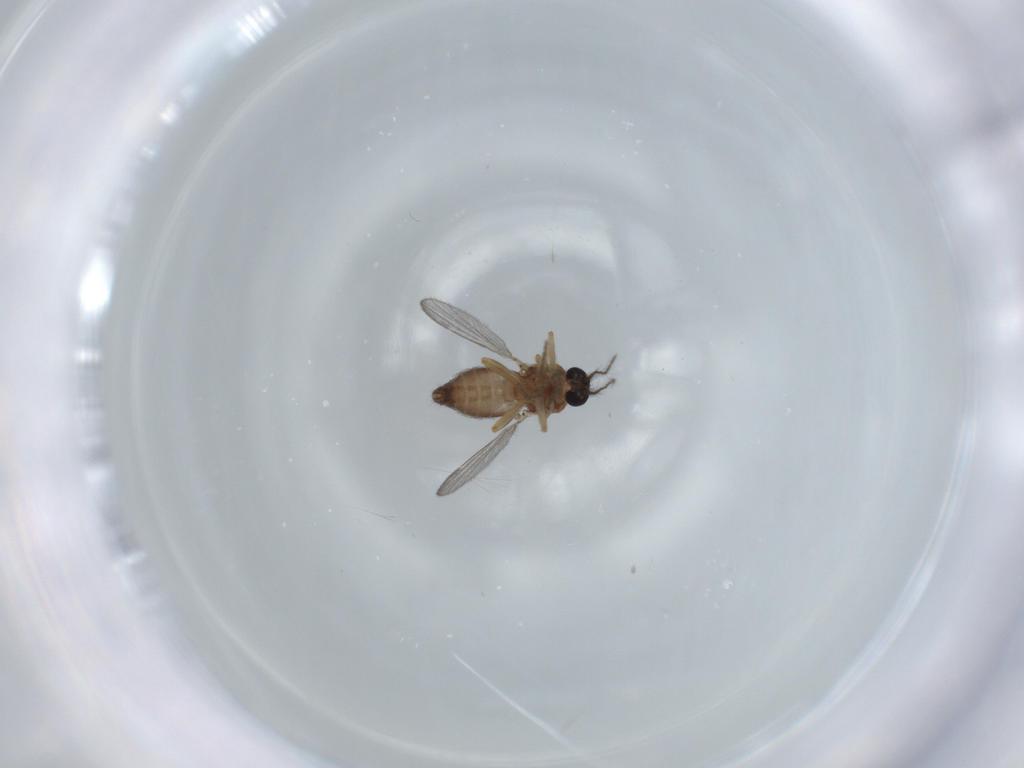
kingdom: Animalia
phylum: Arthropoda
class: Insecta
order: Diptera
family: Ceratopogonidae
